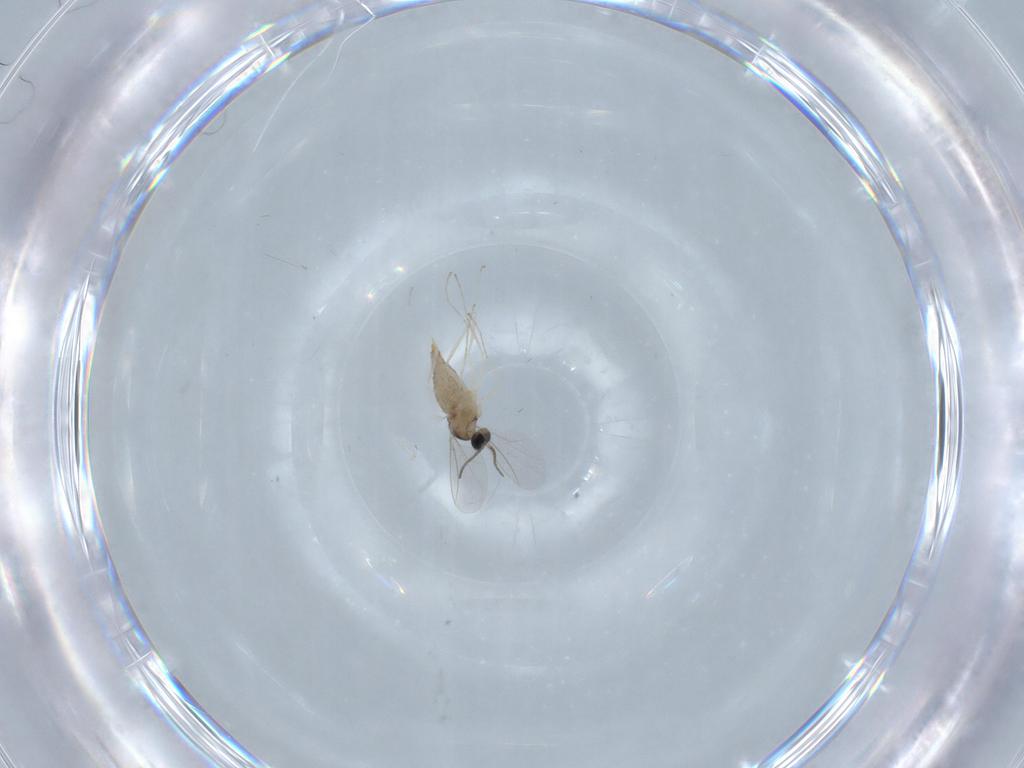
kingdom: Animalia
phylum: Arthropoda
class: Insecta
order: Diptera
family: Cecidomyiidae
